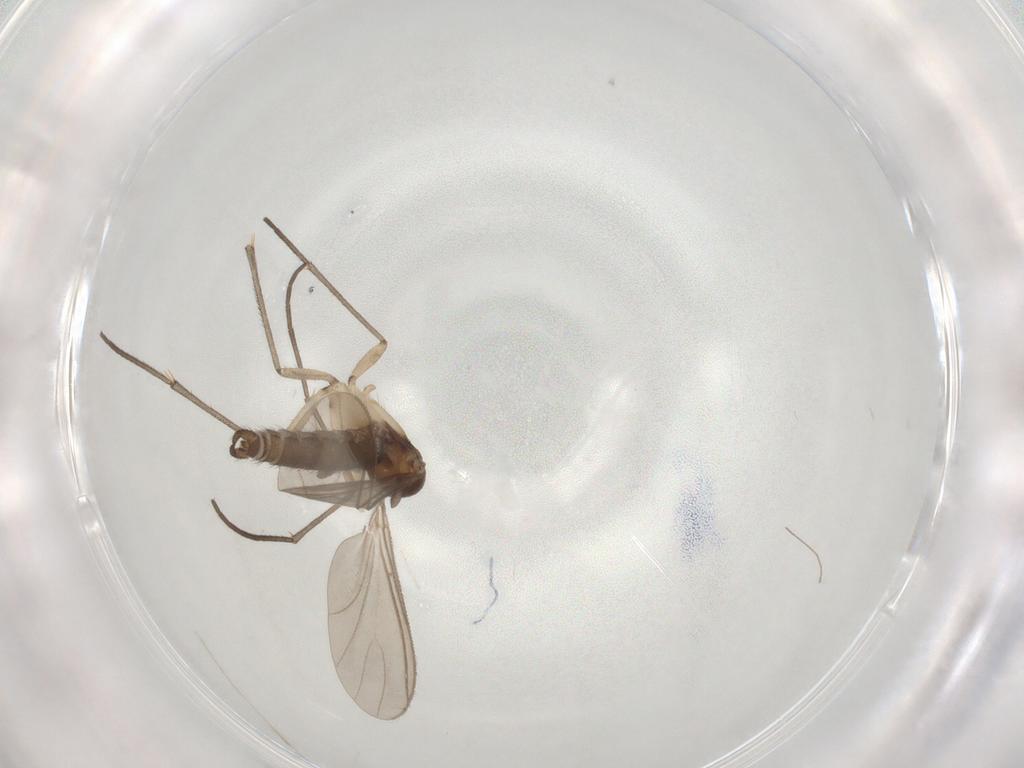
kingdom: Animalia
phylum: Arthropoda
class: Insecta
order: Diptera
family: Sciaridae
